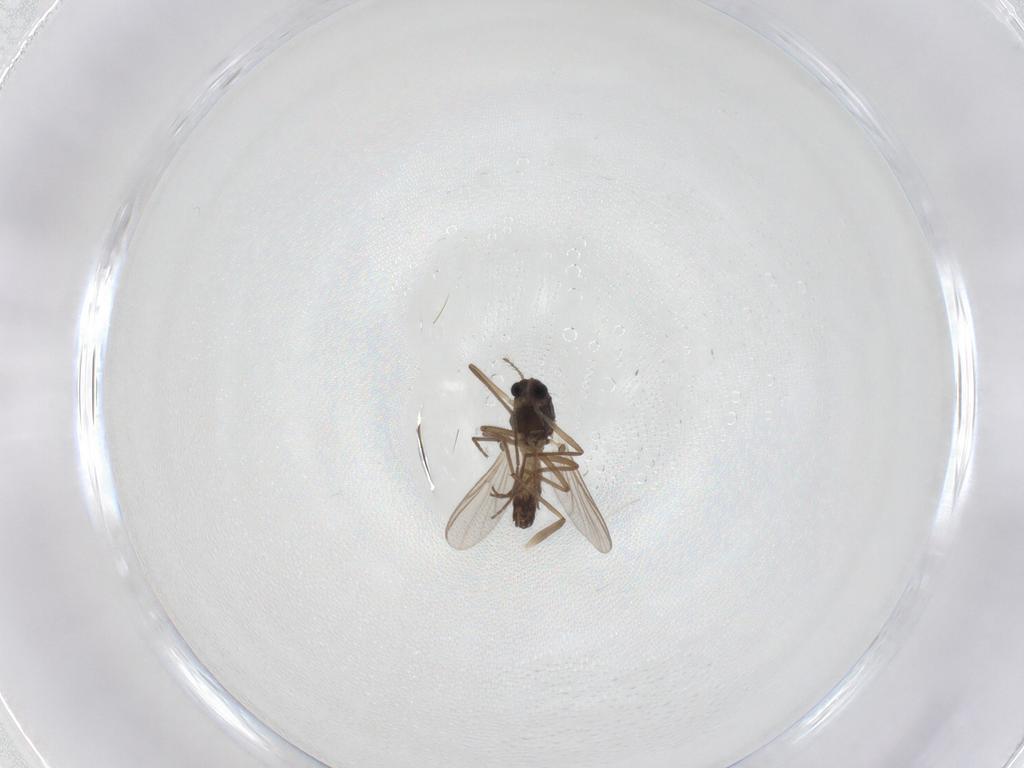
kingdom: Animalia
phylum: Arthropoda
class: Insecta
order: Diptera
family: Chironomidae
